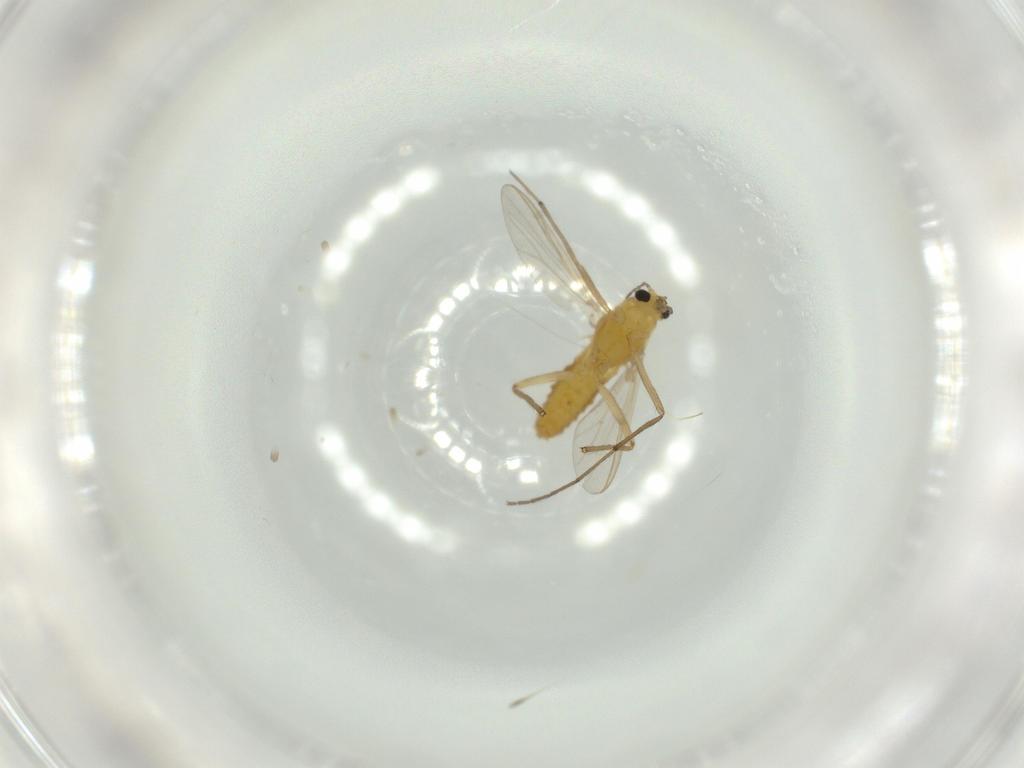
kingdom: Animalia
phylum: Arthropoda
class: Insecta
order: Diptera
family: Chironomidae
